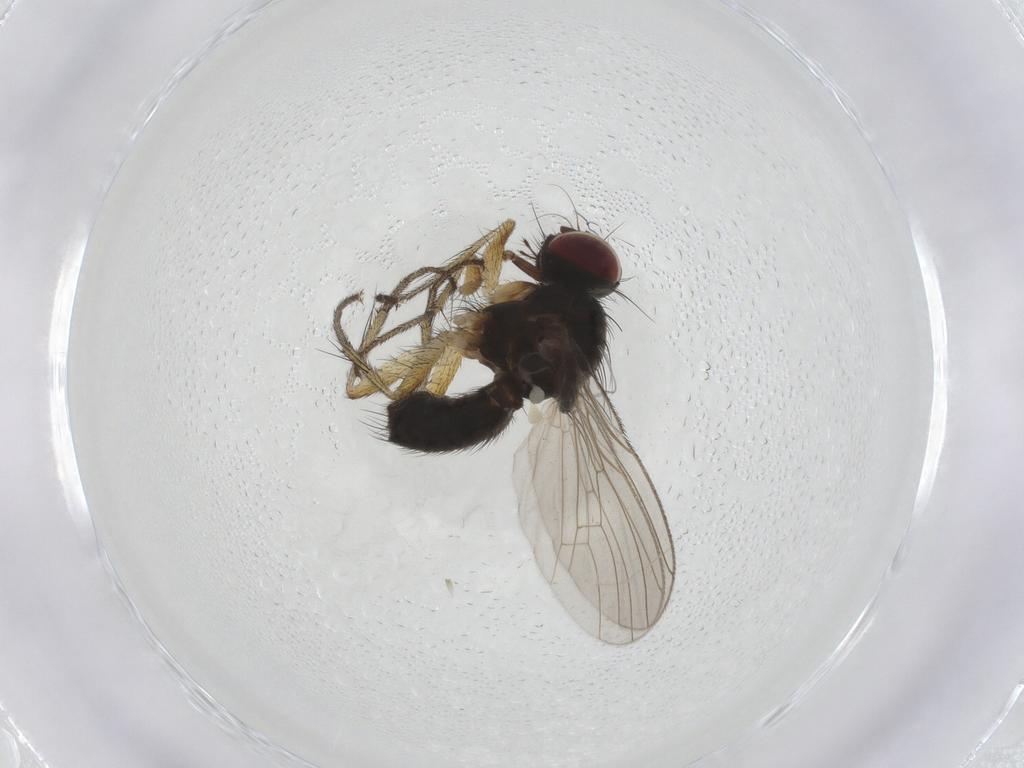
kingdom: Animalia
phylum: Arthropoda
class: Insecta
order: Diptera
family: Muscidae
